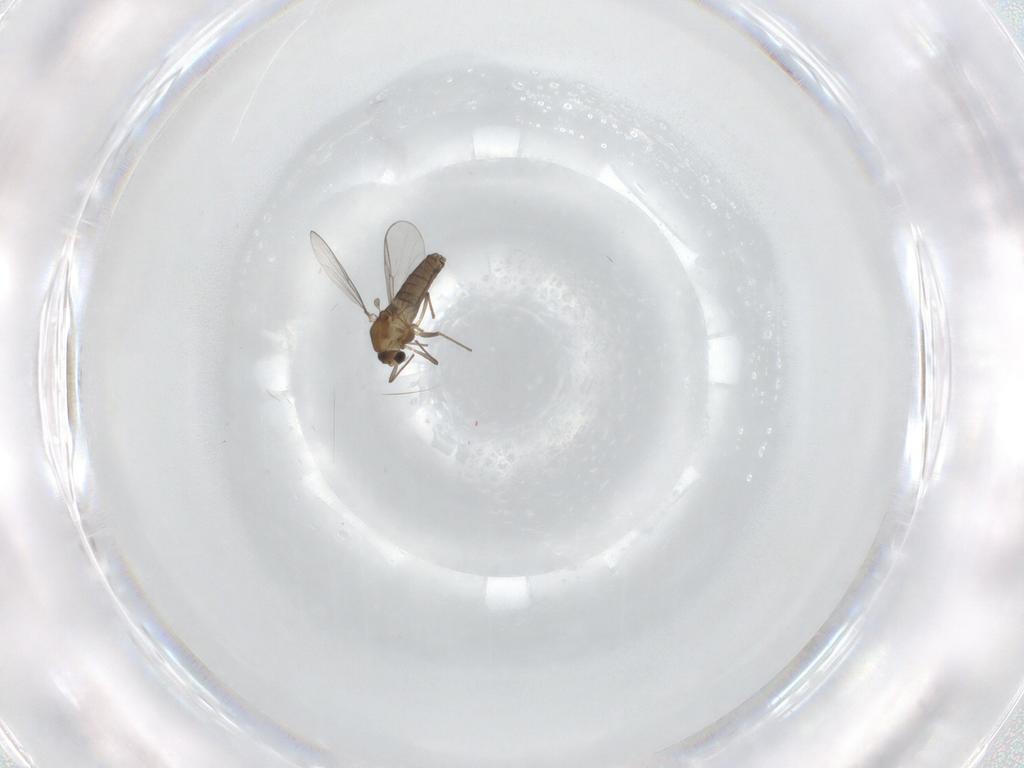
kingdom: Animalia
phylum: Arthropoda
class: Insecta
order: Diptera
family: Chironomidae
